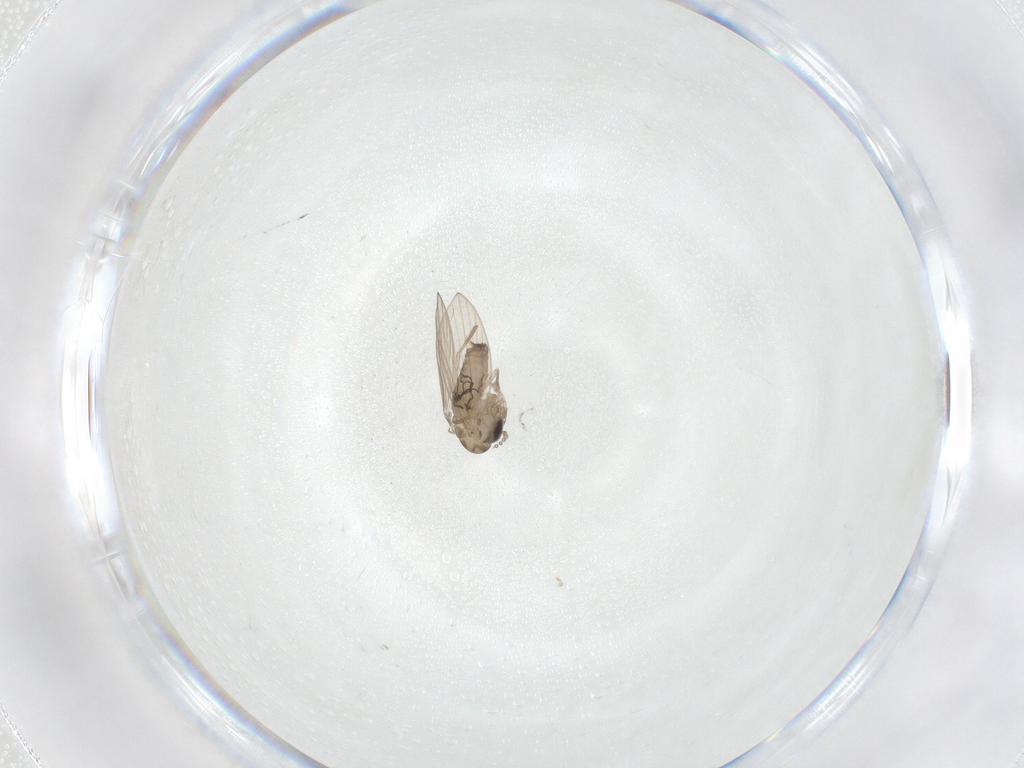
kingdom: Animalia
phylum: Arthropoda
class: Insecta
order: Diptera
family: Psychodidae
